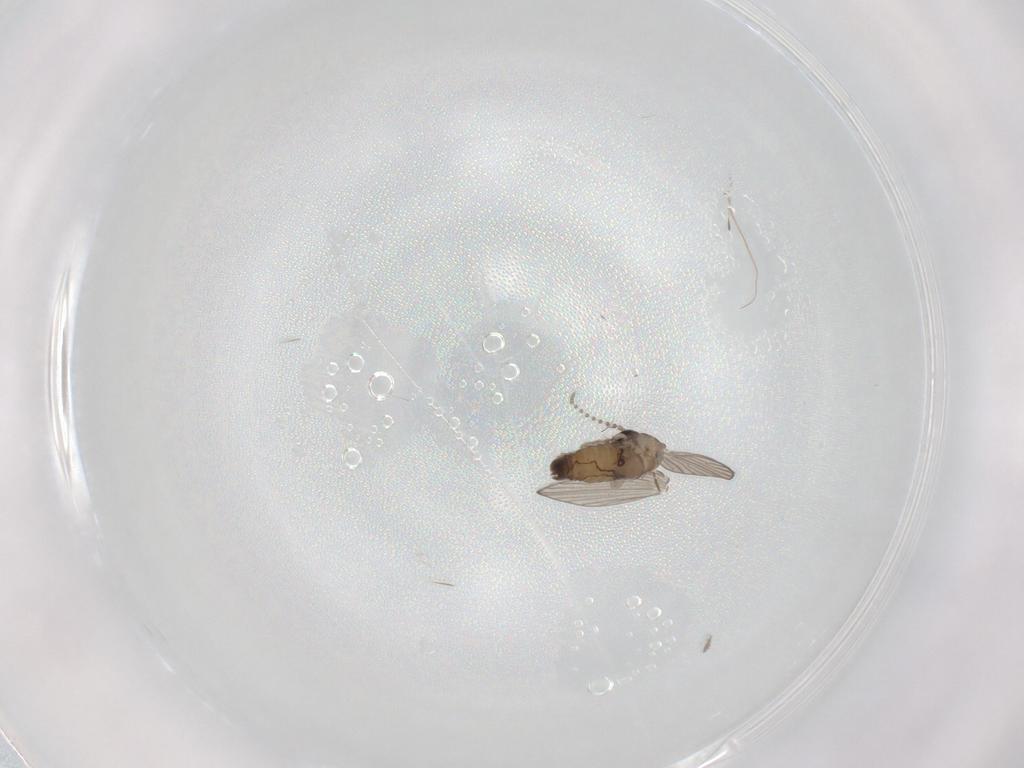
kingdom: Animalia
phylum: Arthropoda
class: Insecta
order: Diptera
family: Psychodidae
